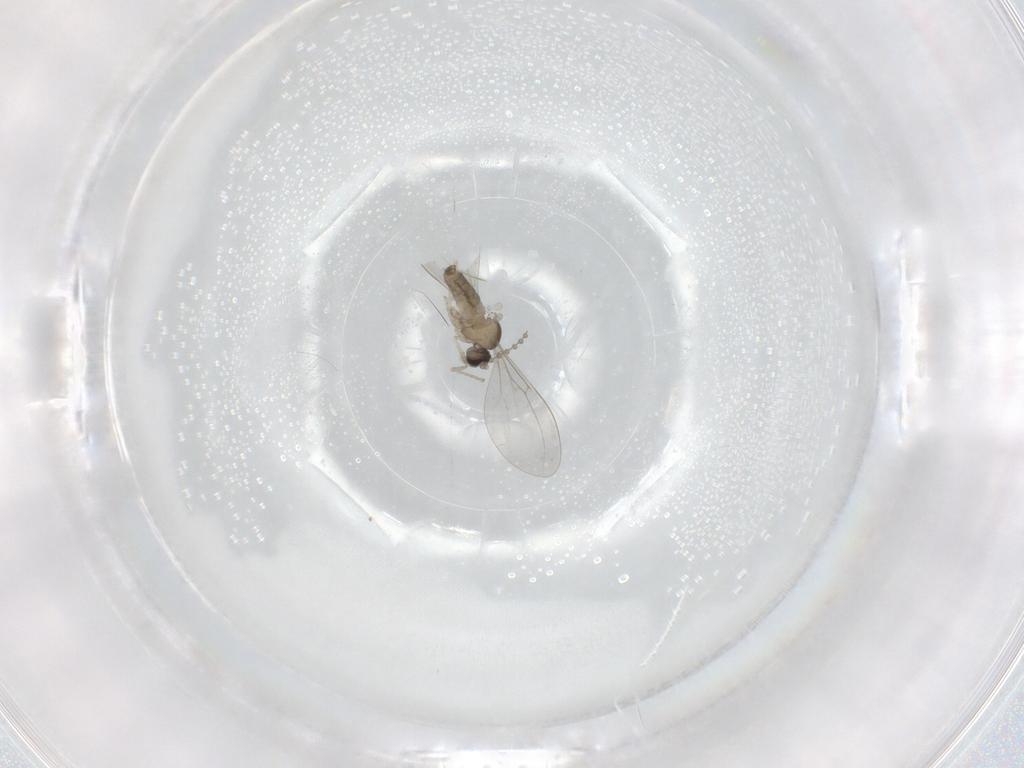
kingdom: Animalia
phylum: Arthropoda
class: Insecta
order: Diptera
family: Cecidomyiidae
